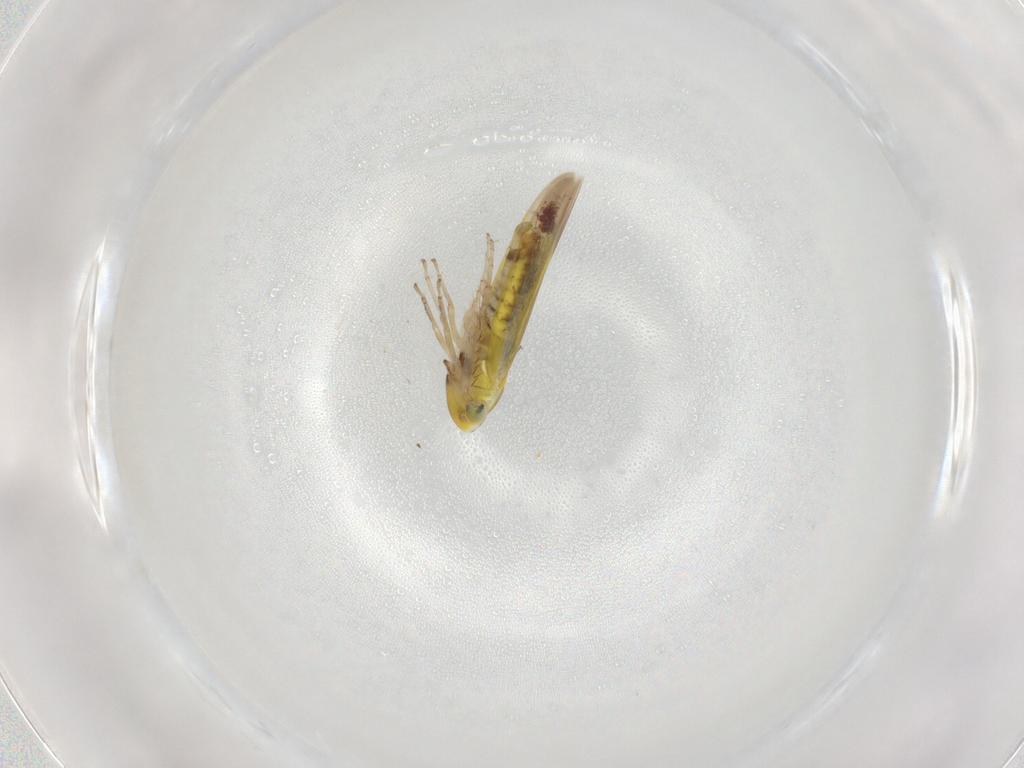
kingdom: Animalia
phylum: Arthropoda
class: Insecta
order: Hemiptera
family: Cicadellidae
